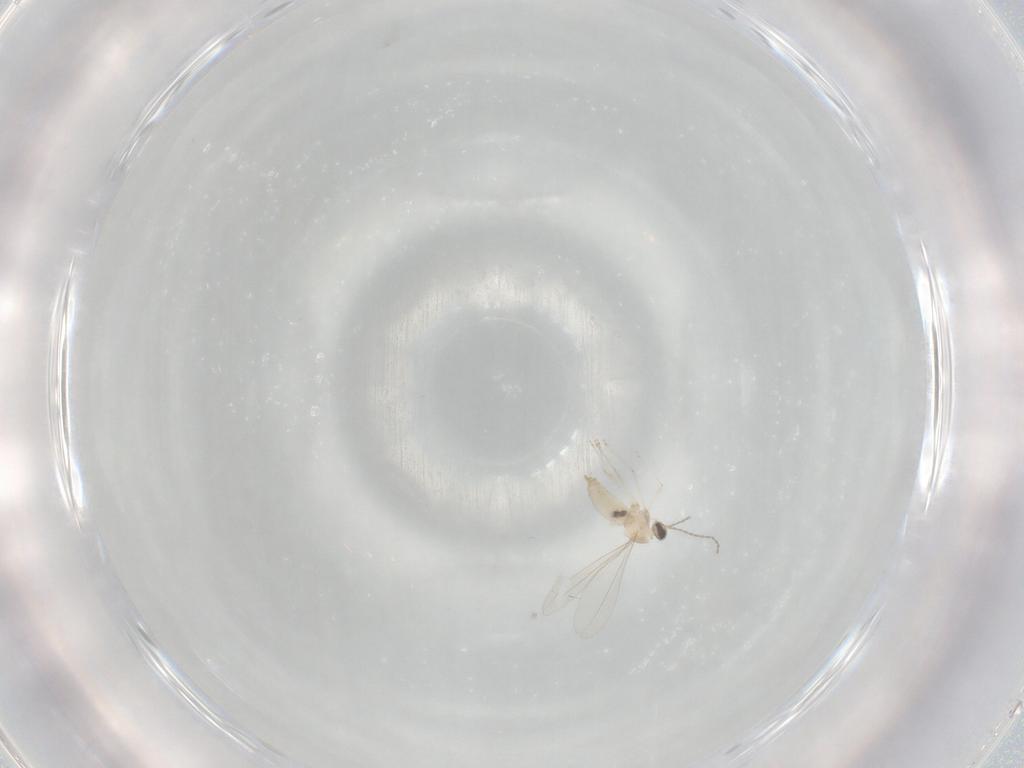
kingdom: Animalia
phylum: Arthropoda
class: Insecta
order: Diptera
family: Cecidomyiidae
